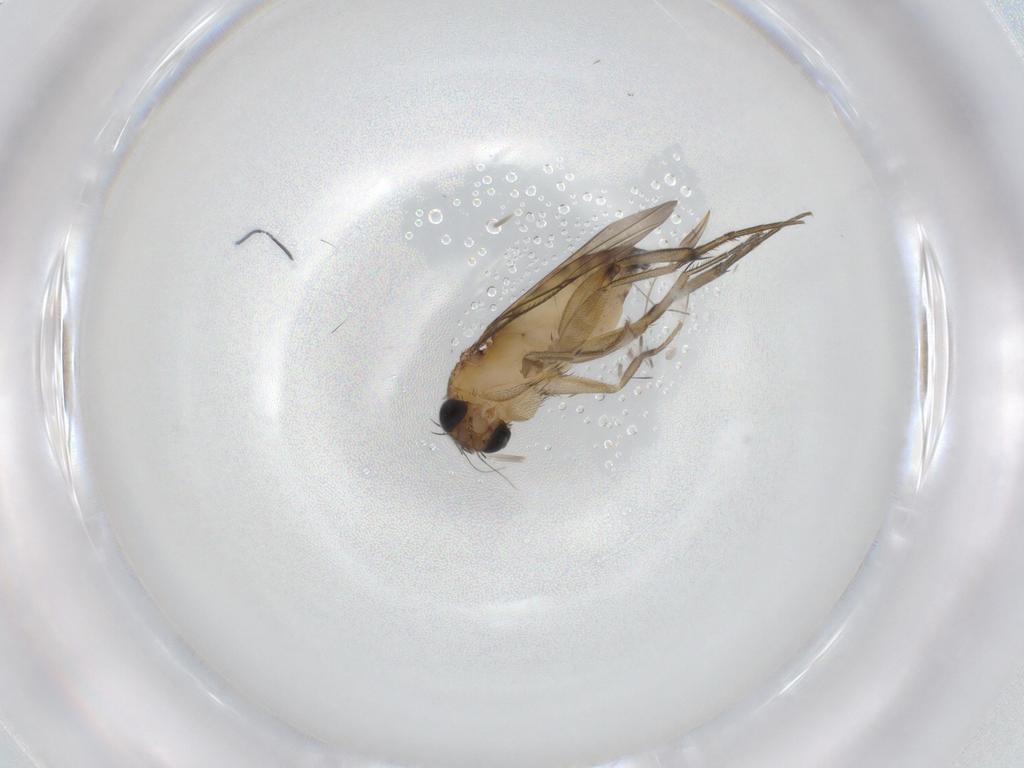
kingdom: Animalia
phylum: Arthropoda
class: Insecta
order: Diptera
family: Phoridae
